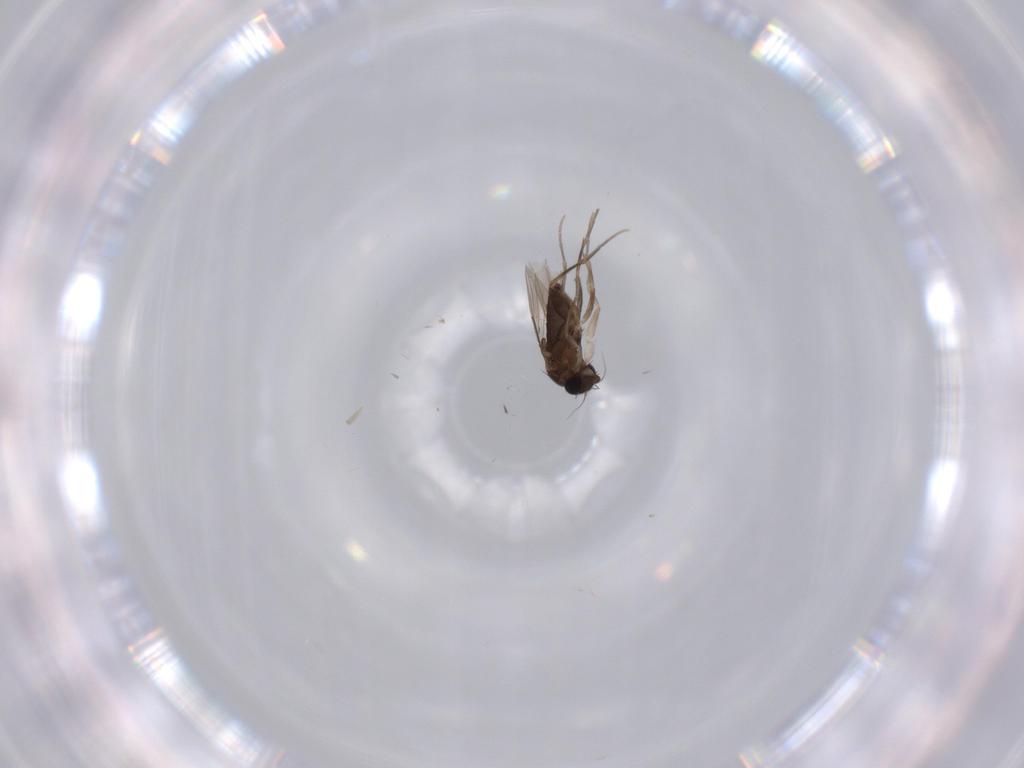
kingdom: Animalia
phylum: Arthropoda
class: Insecta
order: Diptera
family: Phoridae
